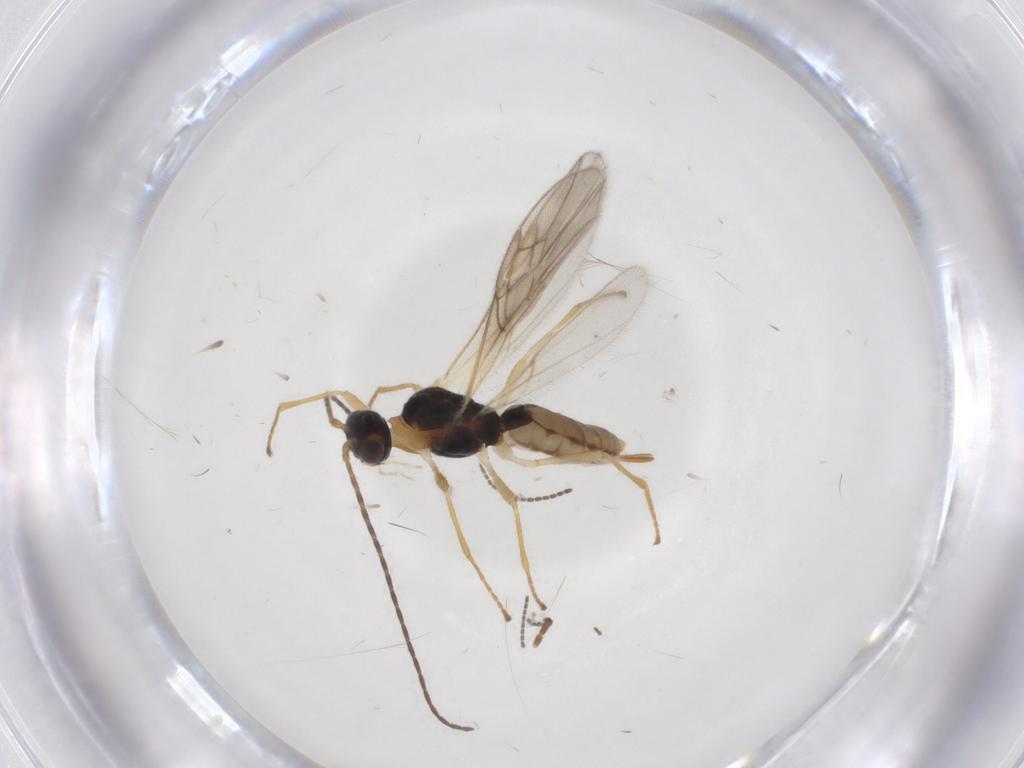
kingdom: Animalia
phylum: Arthropoda
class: Insecta
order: Hymenoptera
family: Braconidae
